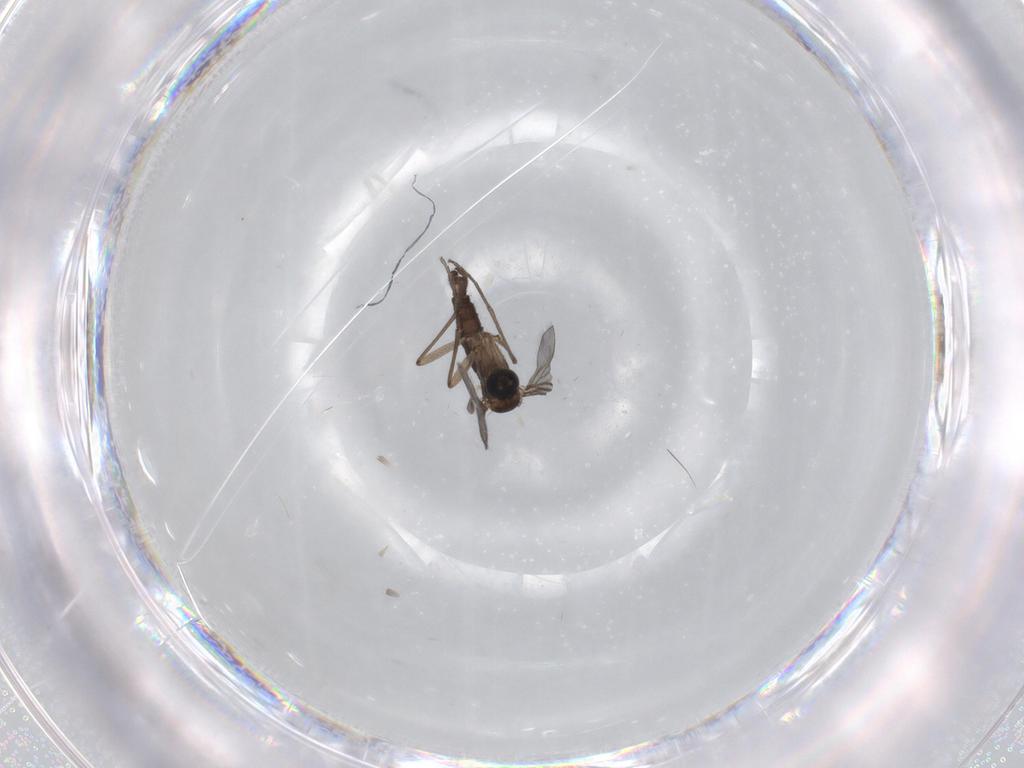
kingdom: Animalia
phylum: Arthropoda
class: Insecta
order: Diptera
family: Sciaridae
